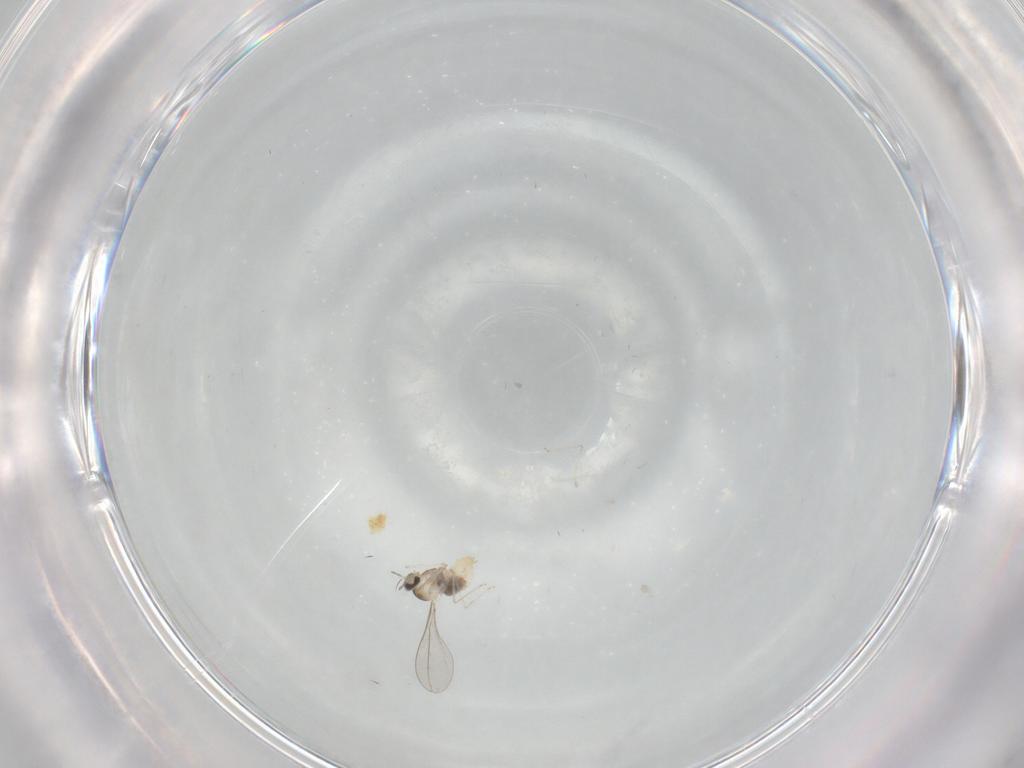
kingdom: Animalia
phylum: Arthropoda
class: Insecta
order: Diptera
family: Cecidomyiidae
